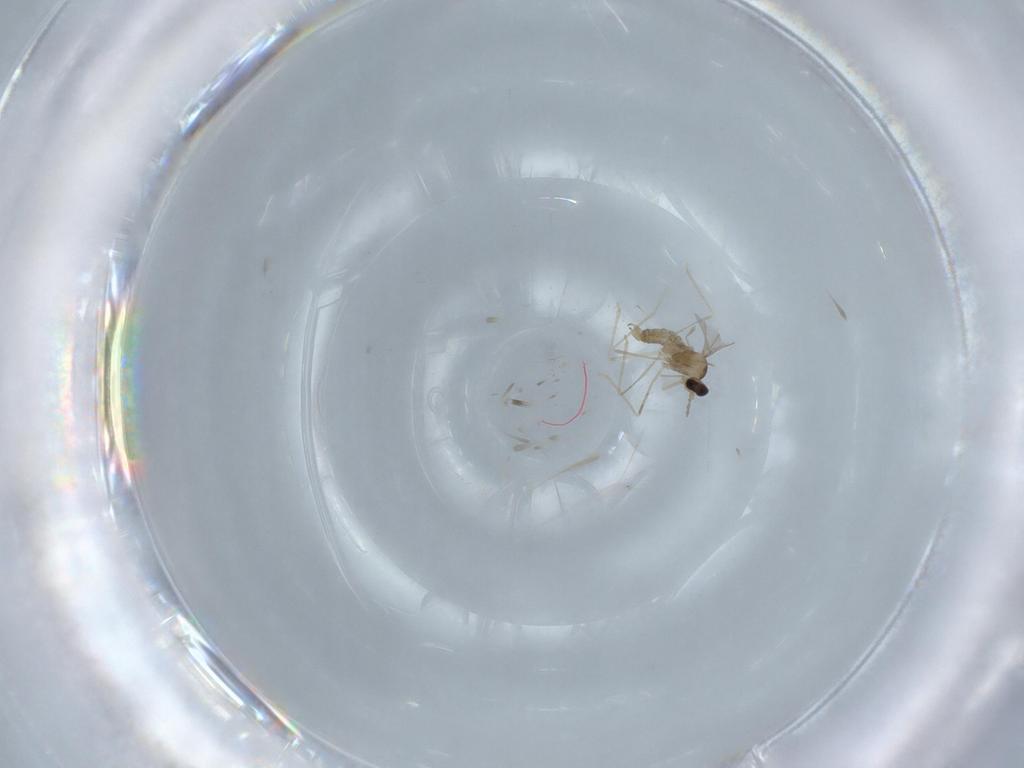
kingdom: Animalia
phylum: Arthropoda
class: Insecta
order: Diptera
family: Cecidomyiidae
